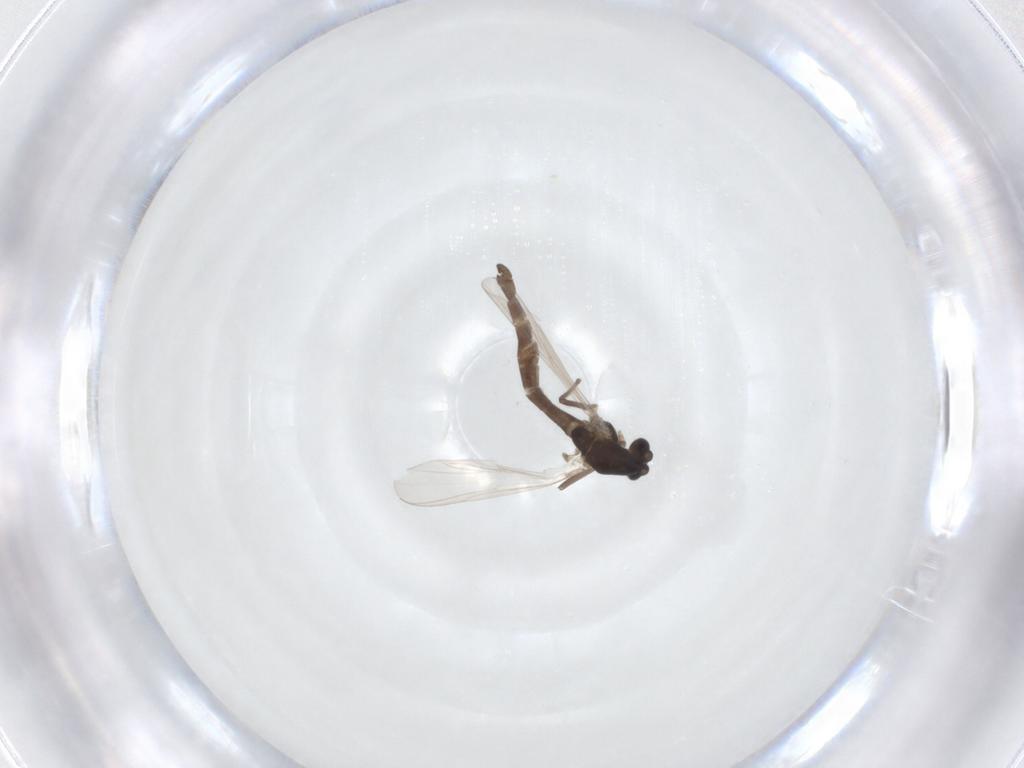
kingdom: Animalia
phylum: Arthropoda
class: Insecta
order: Diptera
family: Chironomidae
